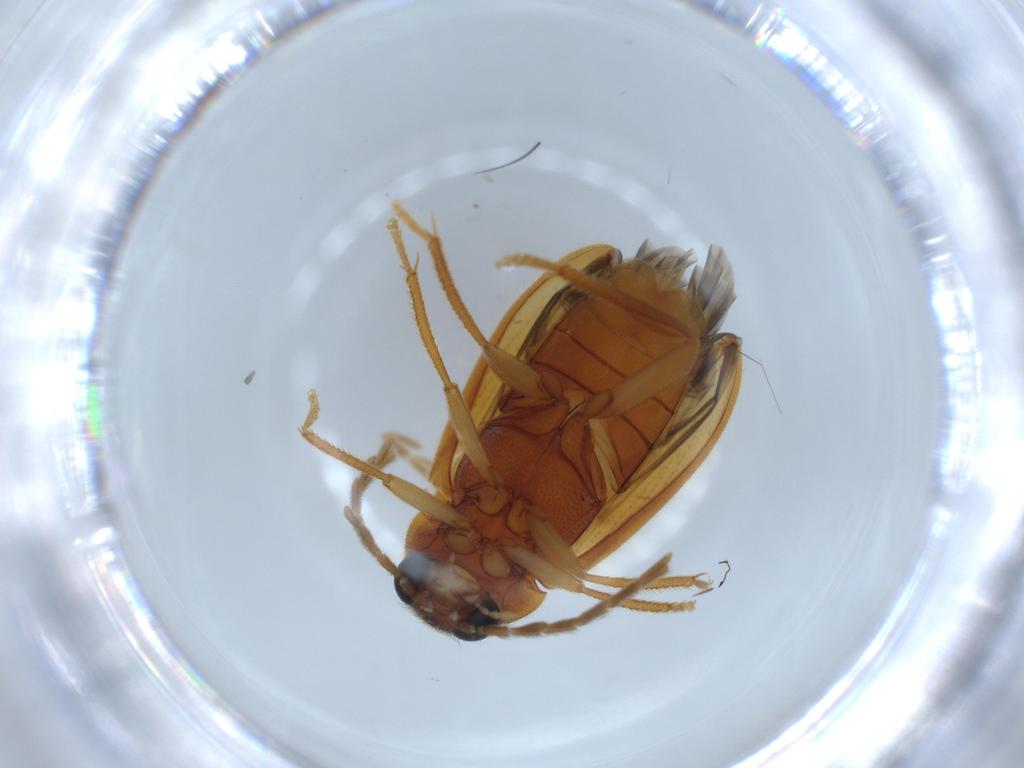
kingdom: Animalia
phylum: Arthropoda
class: Insecta
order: Coleoptera
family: Ptilodactylidae
